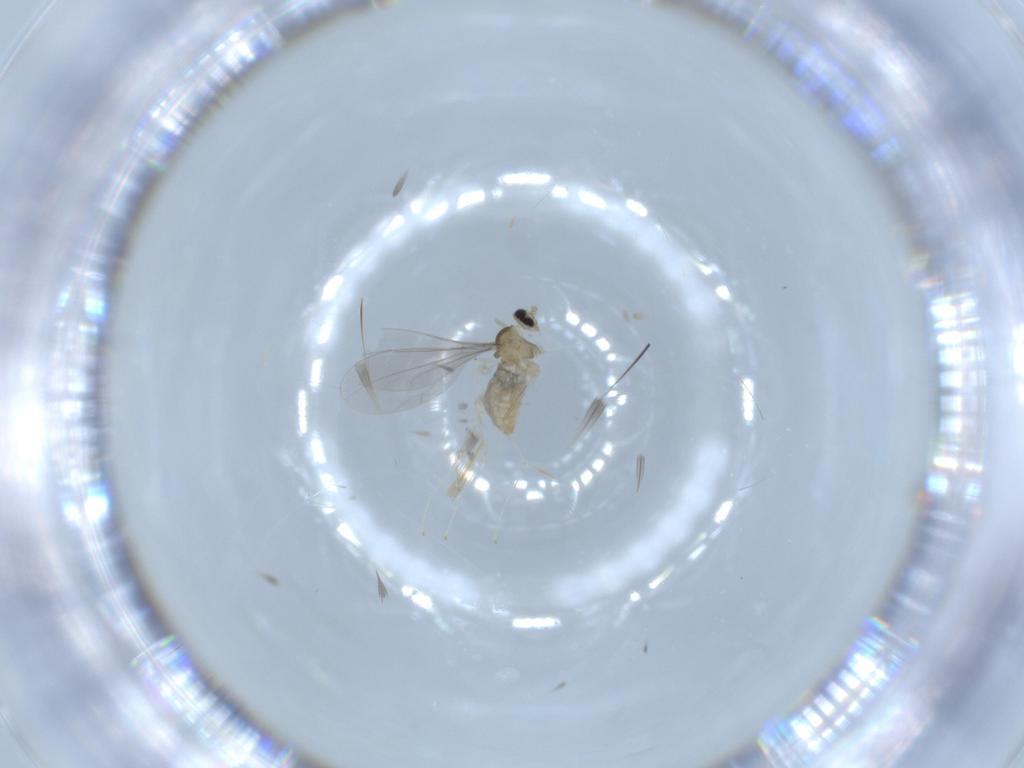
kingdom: Animalia
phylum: Arthropoda
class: Insecta
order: Diptera
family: Cecidomyiidae
